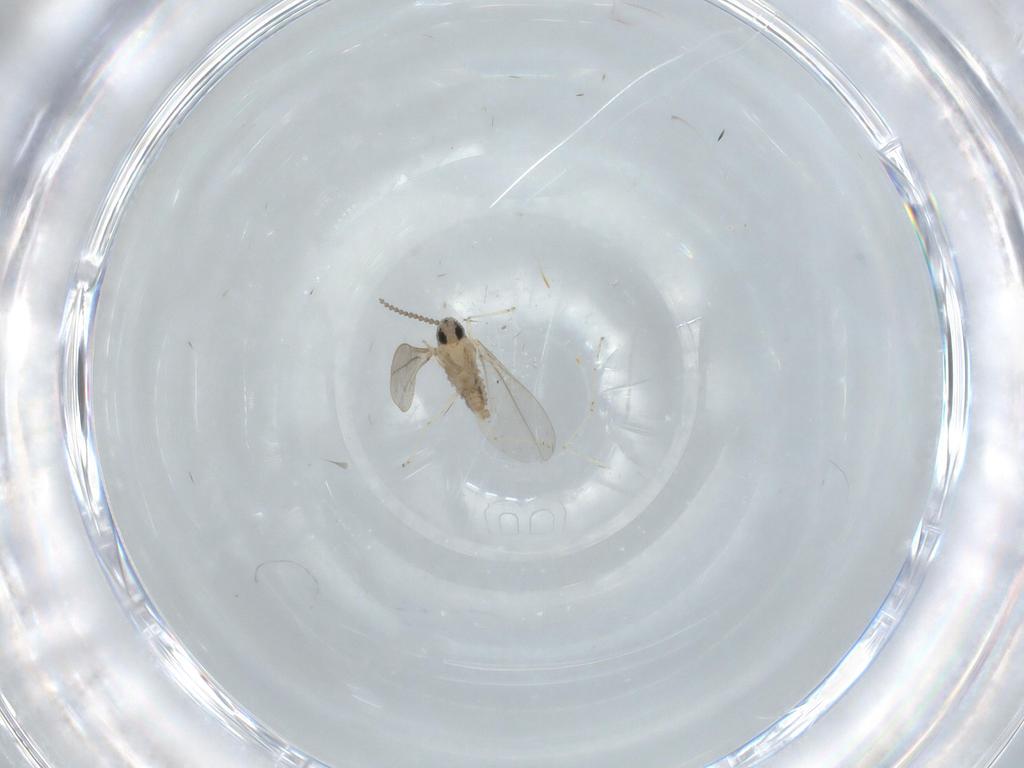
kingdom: Animalia
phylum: Arthropoda
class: Insecta
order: Diptera
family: Cecidomyiidae
